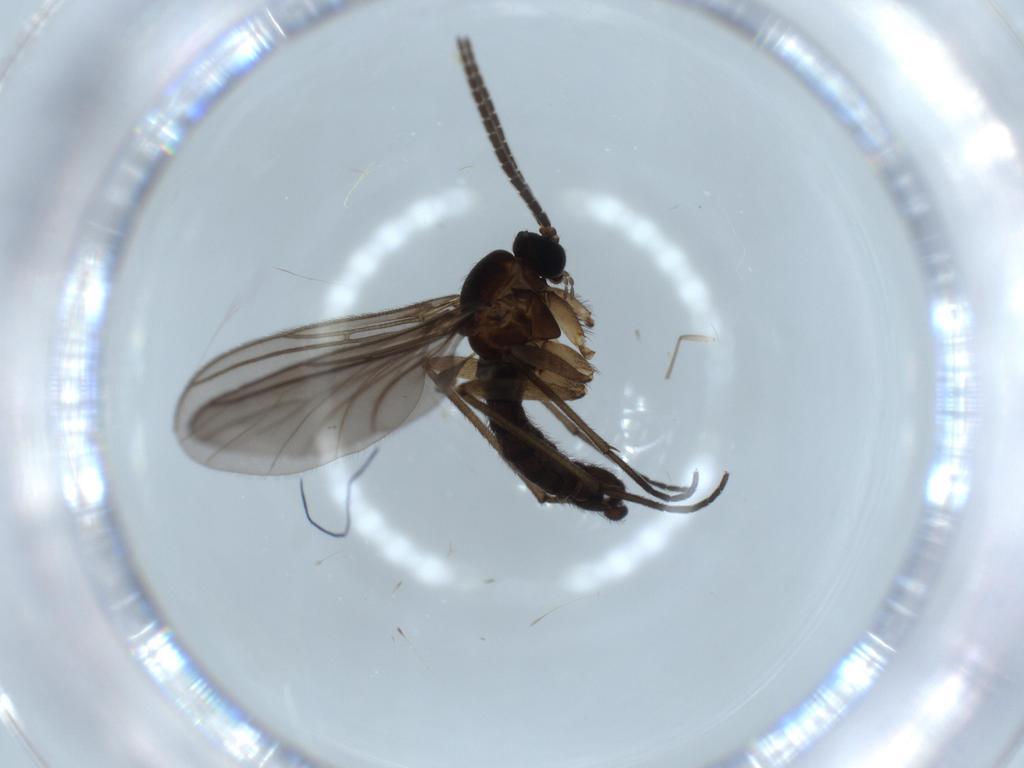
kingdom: Animalia
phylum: Arthropoda
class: Insecta
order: Diptera
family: Sciaridae
